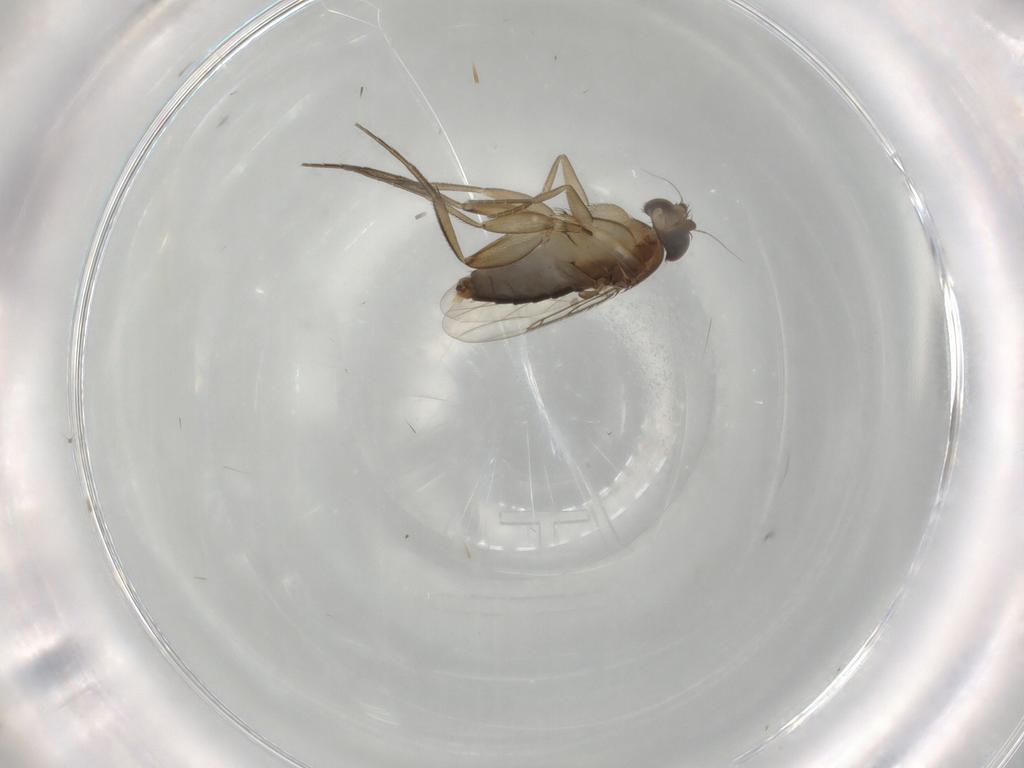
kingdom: Animalia
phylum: Arthropoda
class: Insecta
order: Diptera
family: Phoridae
